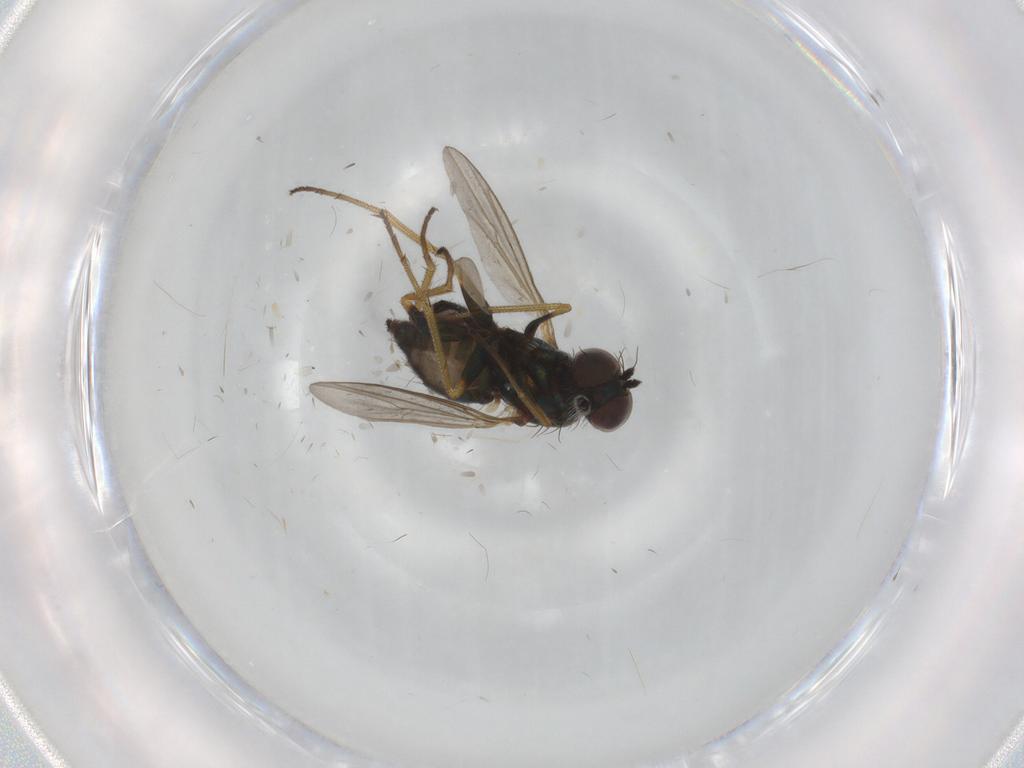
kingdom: Animalia
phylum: Arthropoda
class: Insecta
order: Diptera
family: Dolichopodidae
